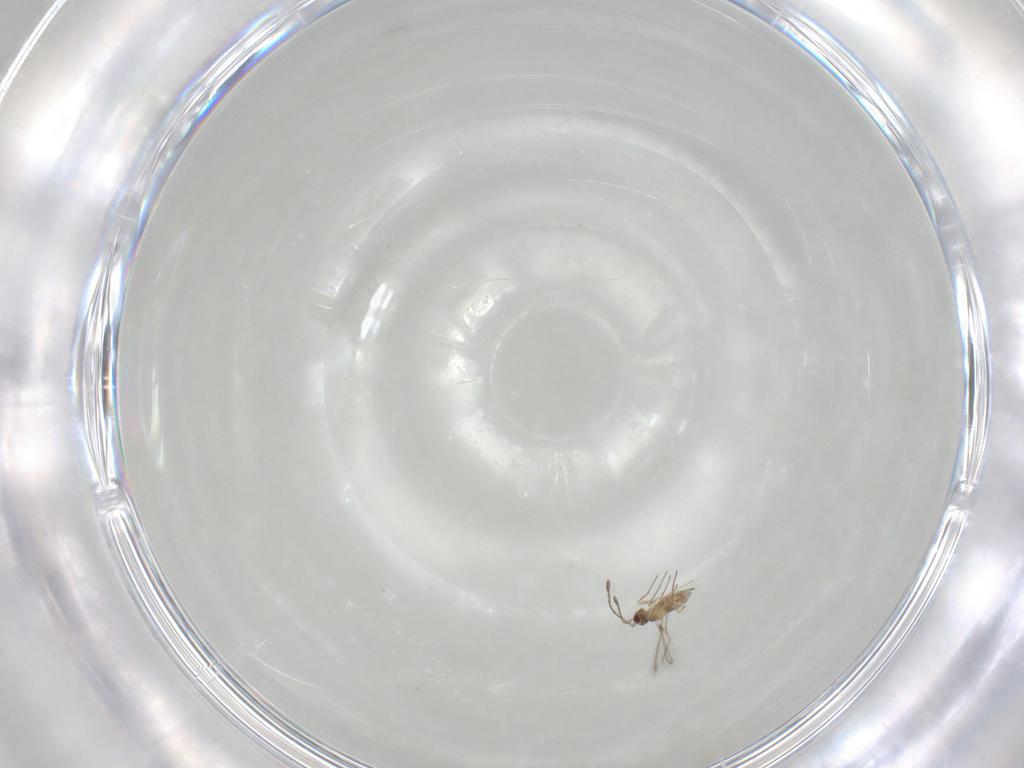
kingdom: Animalia
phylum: Arthropoda
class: Insecta
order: Hymenoptera
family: Mymaridae
